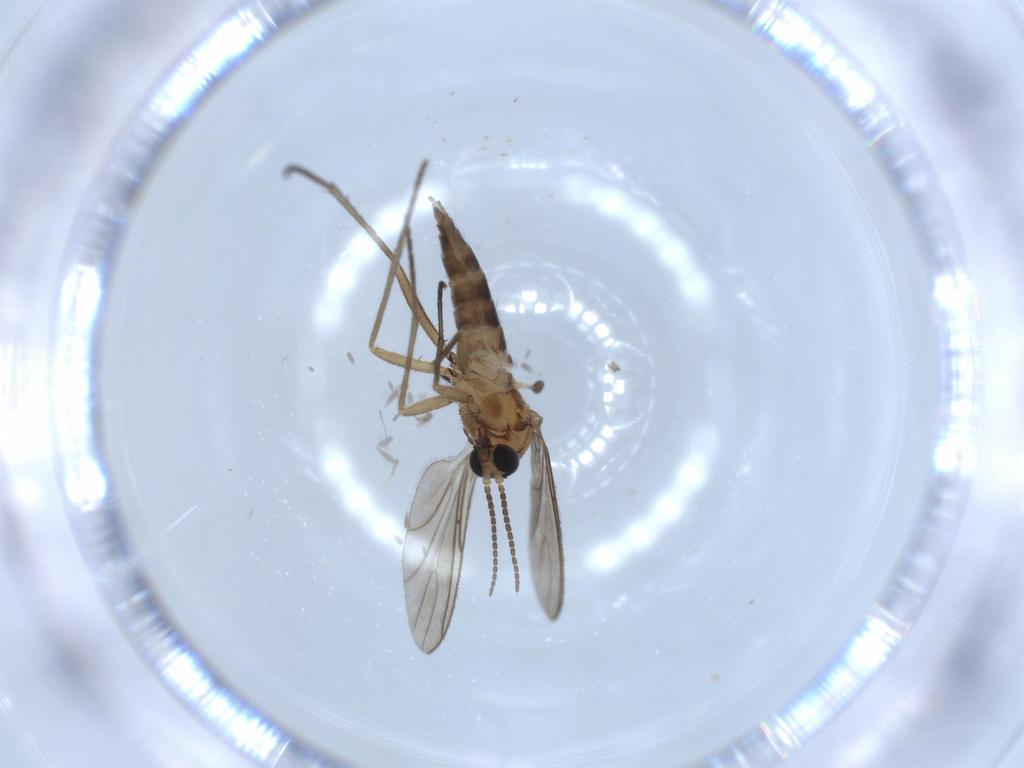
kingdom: Animalia
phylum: Arthropoda
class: Insecta
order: Diptera
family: Sciaridae
